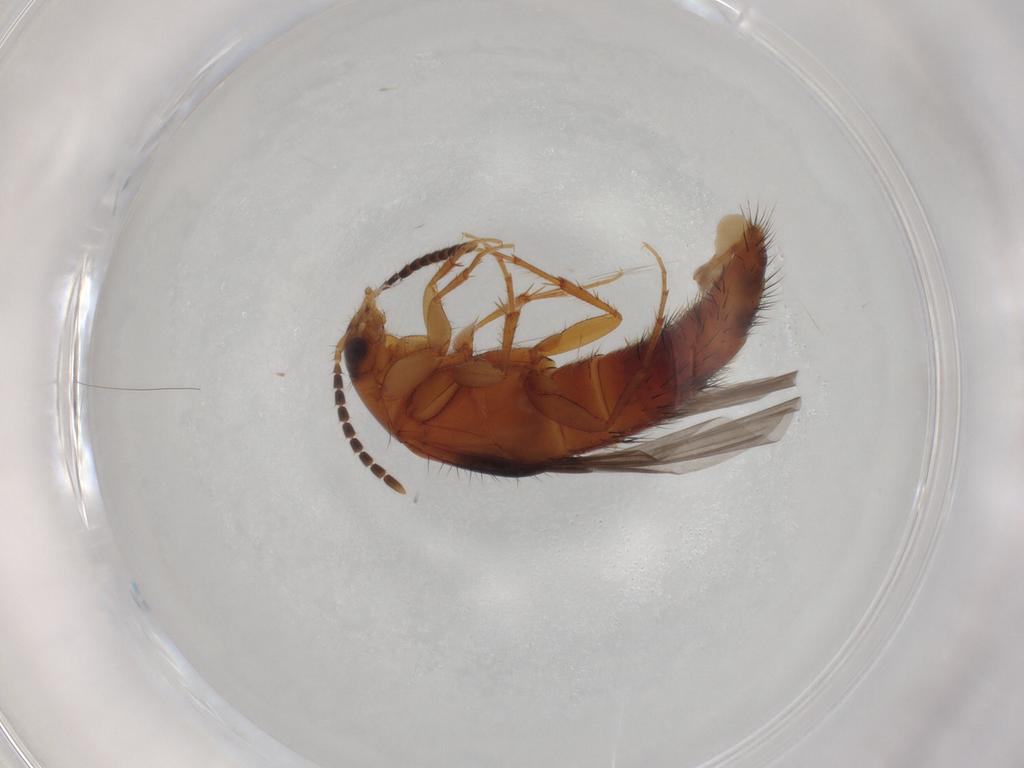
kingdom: Animalia
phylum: Arthropoda
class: Insecta
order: Coleoptera
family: Staphylinidae
